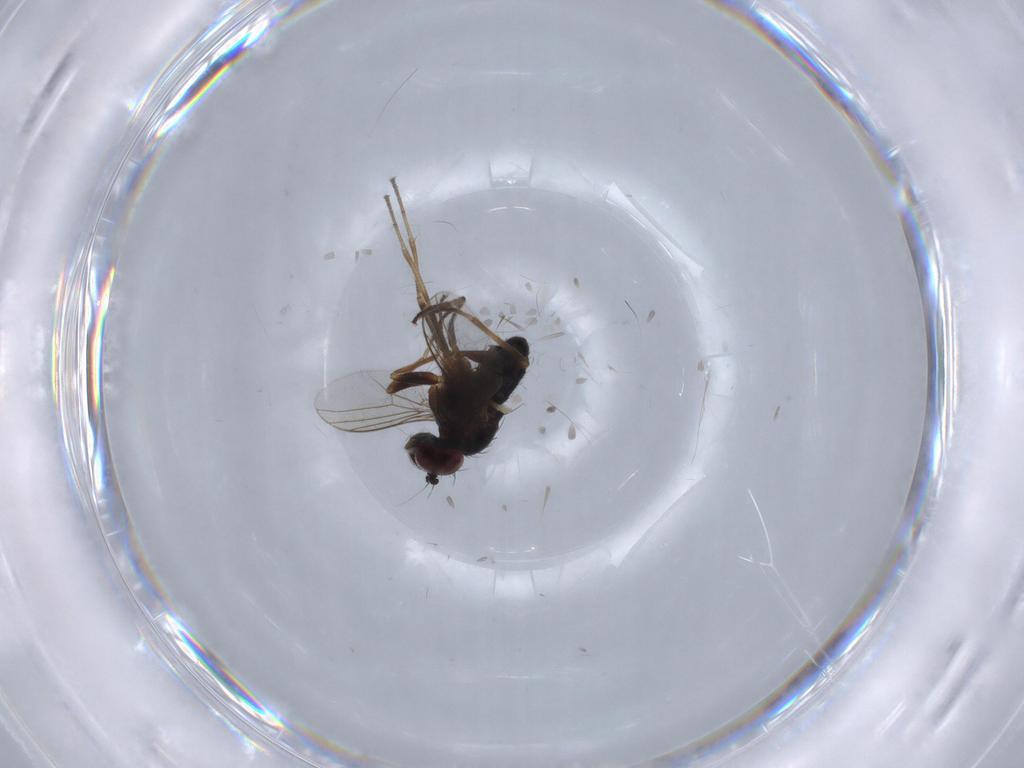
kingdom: Animalia
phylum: Arthropoda
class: Insecta
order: Diptera
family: Dolichopodidae
